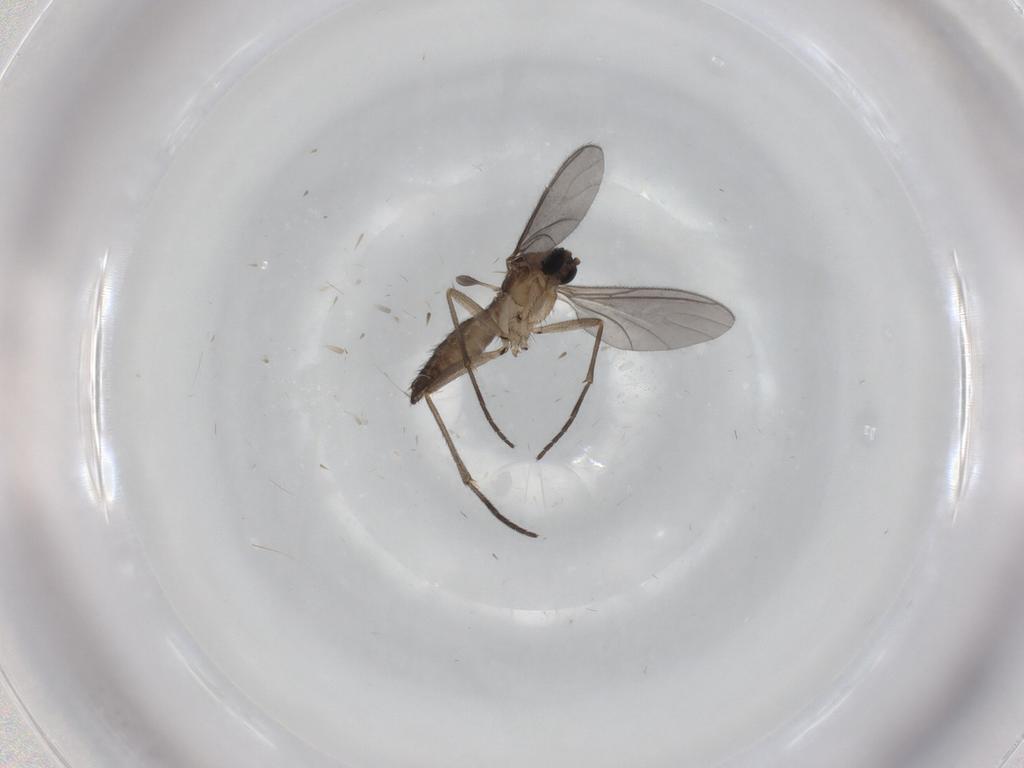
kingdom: Animalia
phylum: Arthropoda
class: Insecta
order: Diptera
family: Sciaridae
